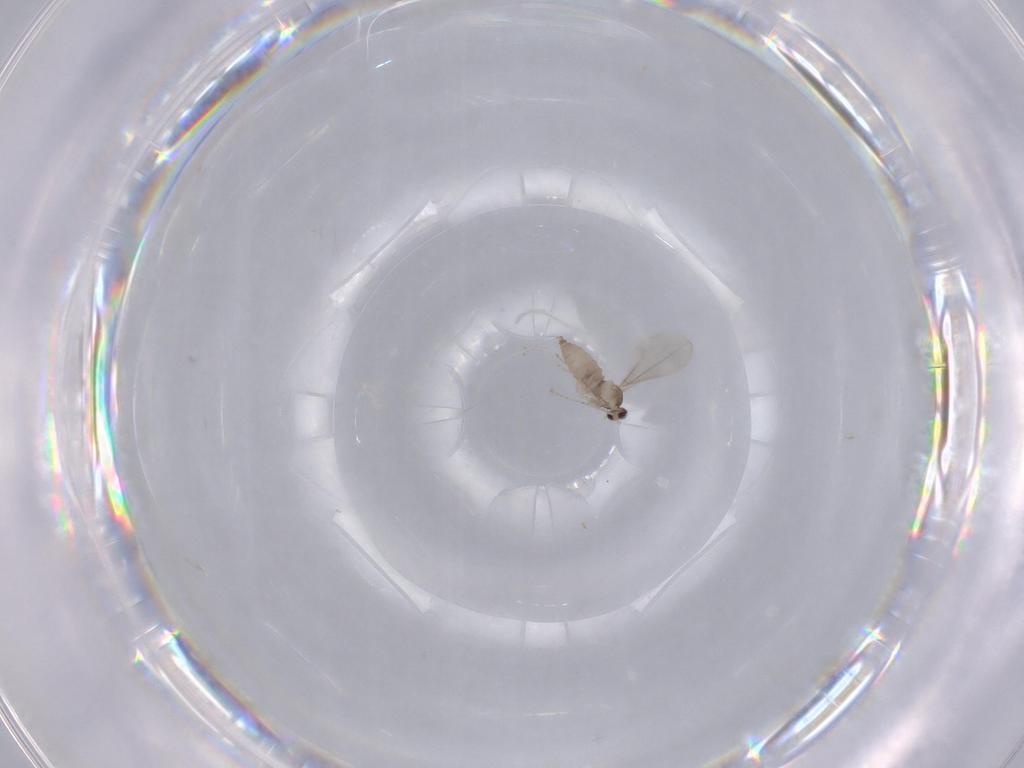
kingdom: Animalia
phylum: Arthropoda
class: Insecta
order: Diptera
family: Cecidomyiidae
